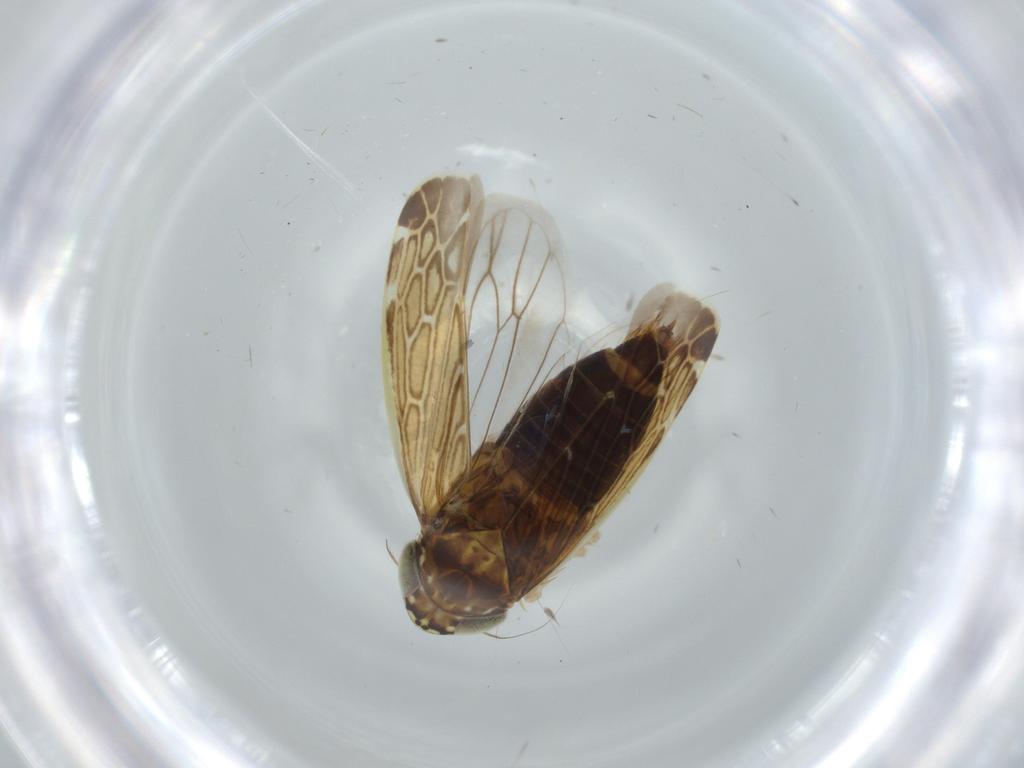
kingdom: Animalia
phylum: Arthropoda
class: Insecta
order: Hemiptera
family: Cicadellidae
